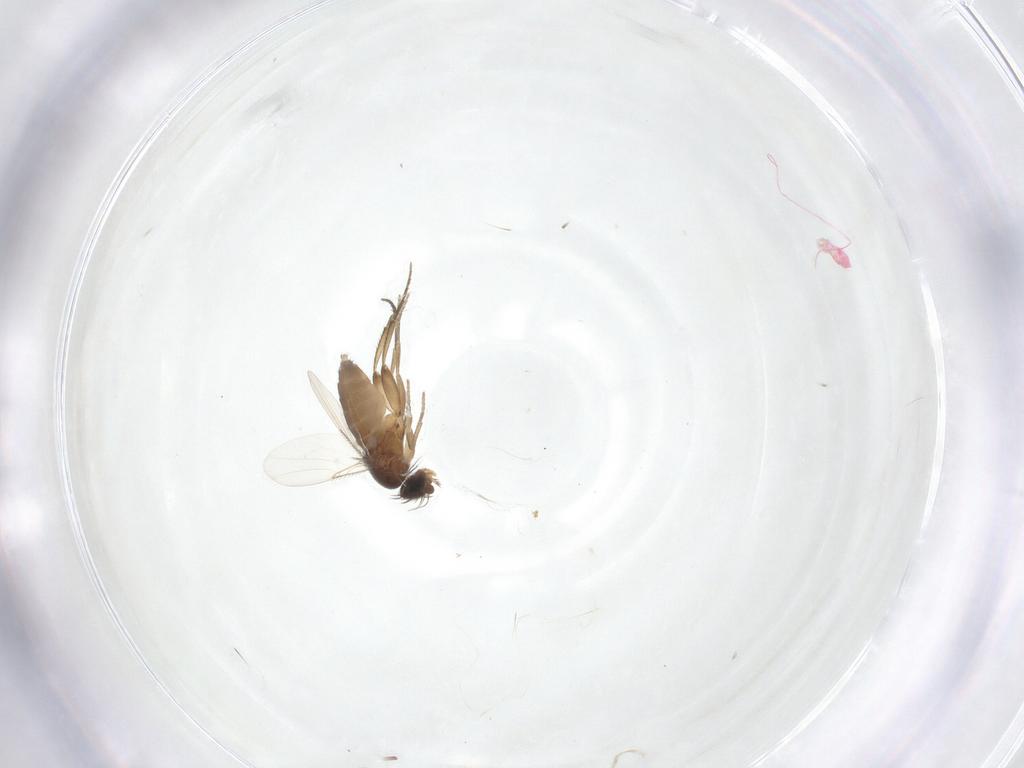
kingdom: Animalia
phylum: Arthropoda
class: Insecta
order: Diptera
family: Phoridae
